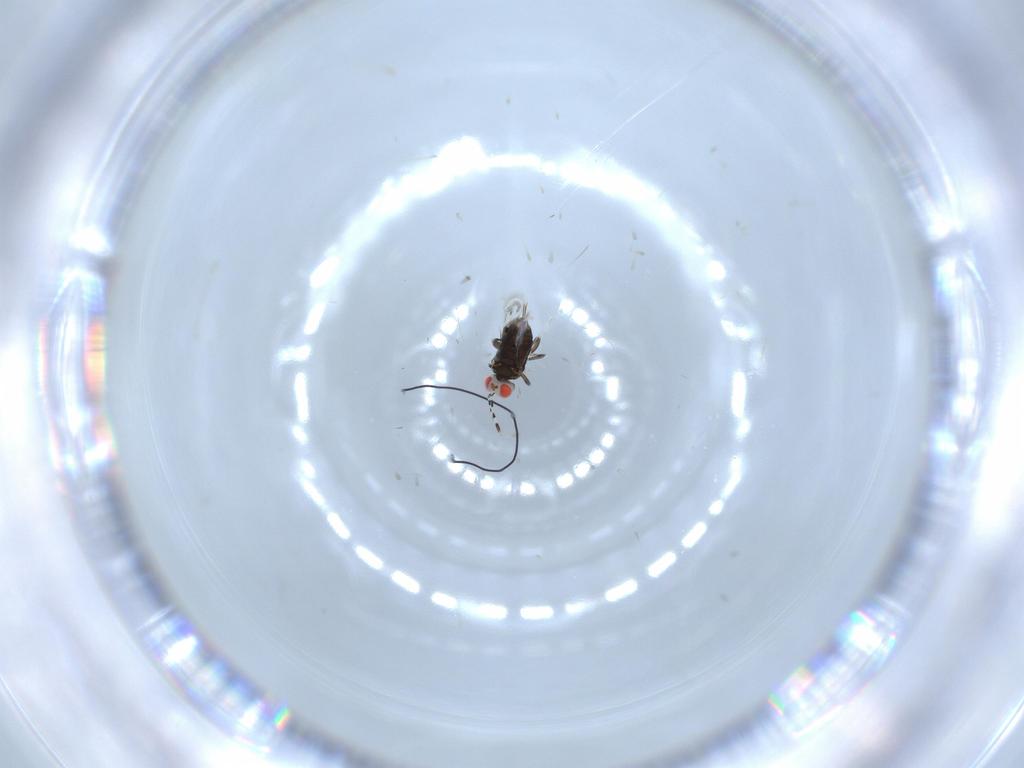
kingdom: Animalia
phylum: Arthropoda
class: Insecta
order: Hymenoptera
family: Azotidae
